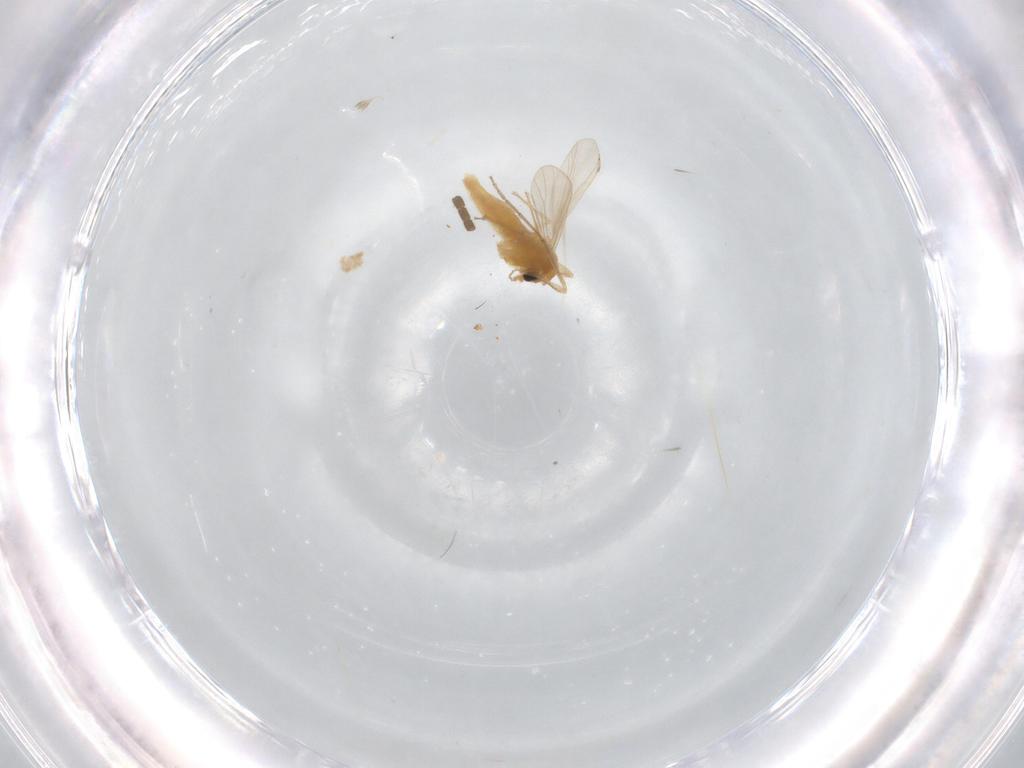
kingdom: Animalia
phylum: Arthropoda
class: Insecta
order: Diptera
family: Chironomidae
